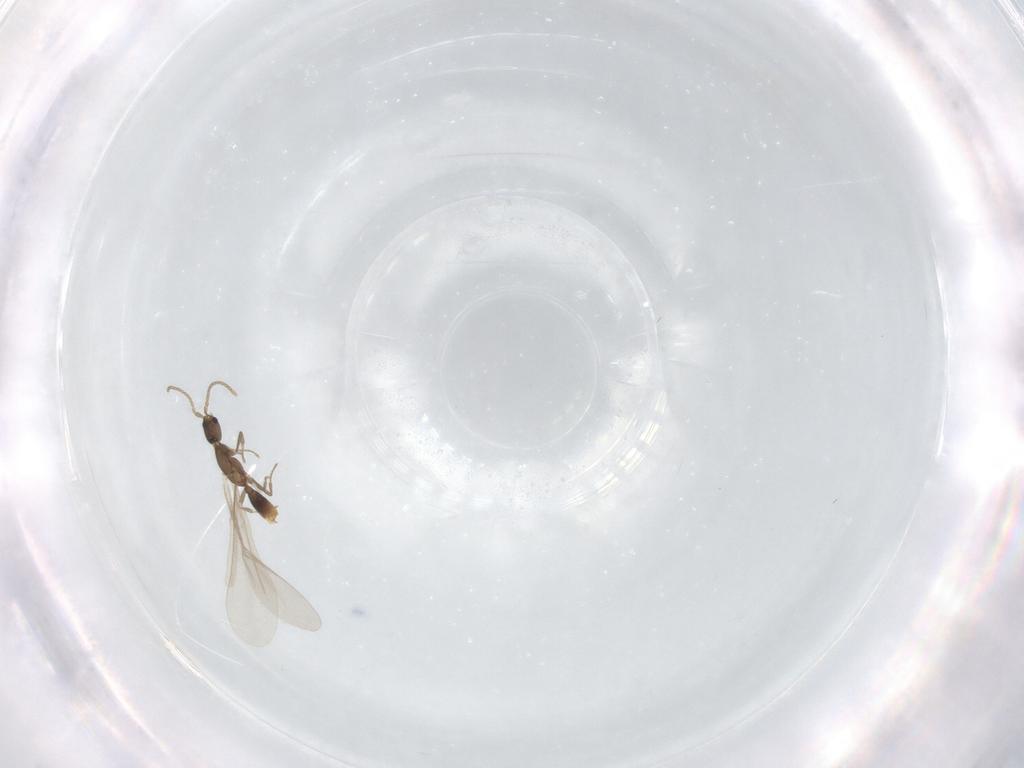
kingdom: Animalia
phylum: Arthropoda
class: Insecta
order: Hymenoptera
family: Formicidae
